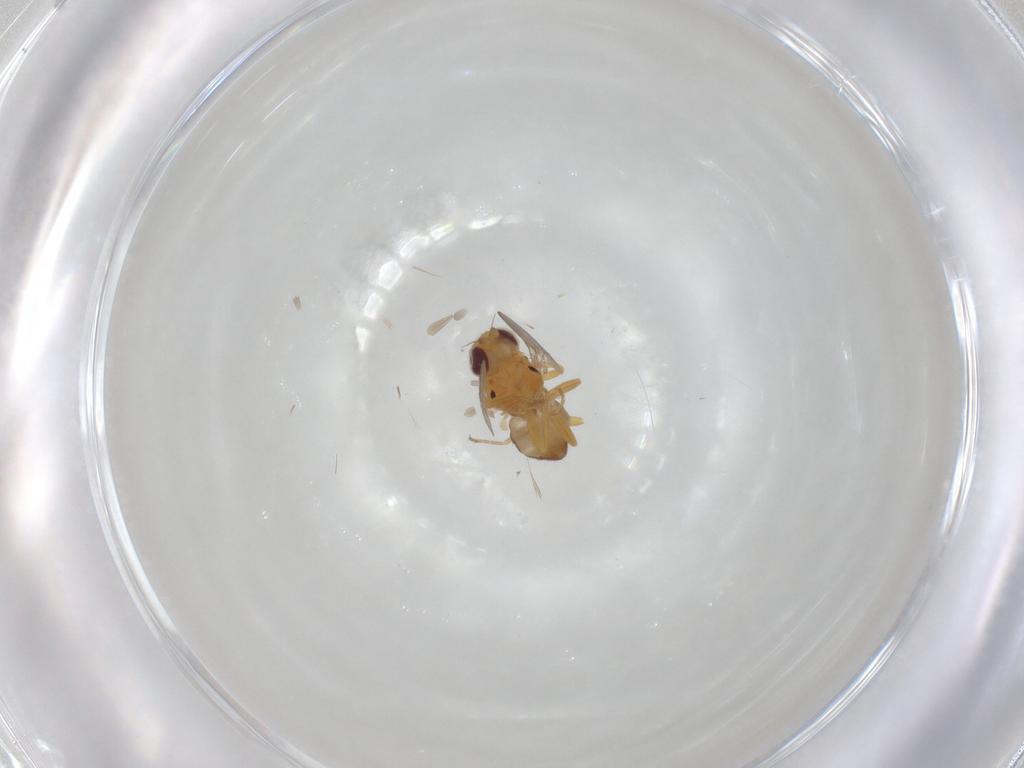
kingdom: Animalia
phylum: Arthropoda
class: Insecta
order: Diptera
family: Chloropidae
